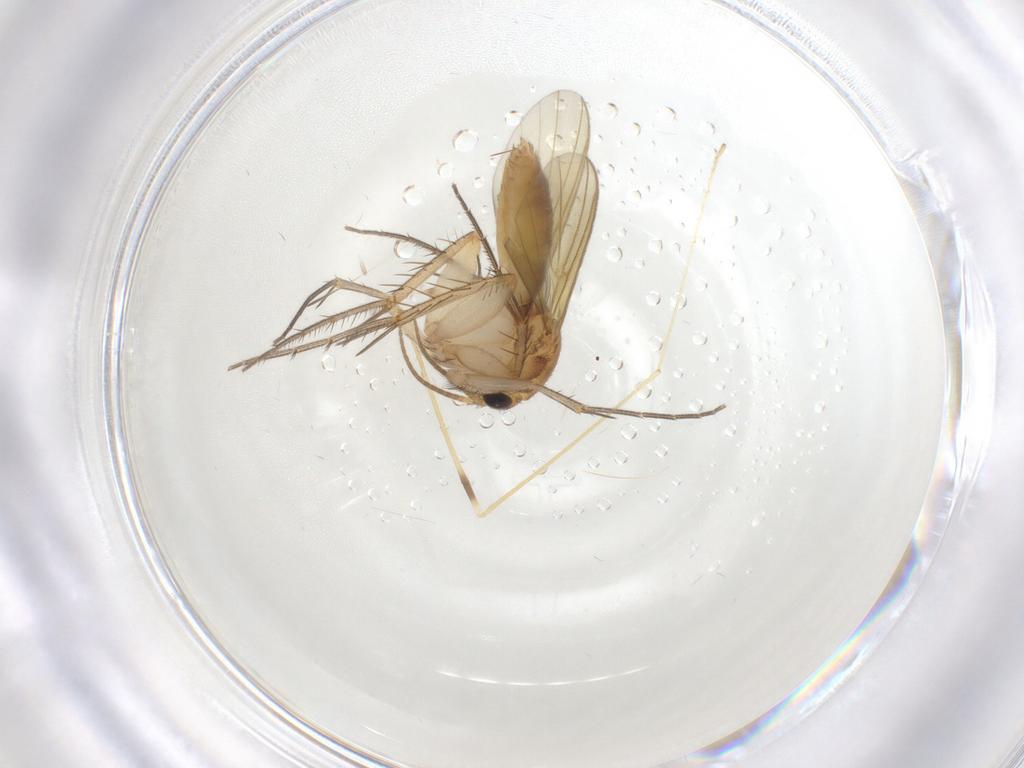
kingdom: Animalia
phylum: Arthropoda
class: Insecta
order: Diptera
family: Mycetophilidae
